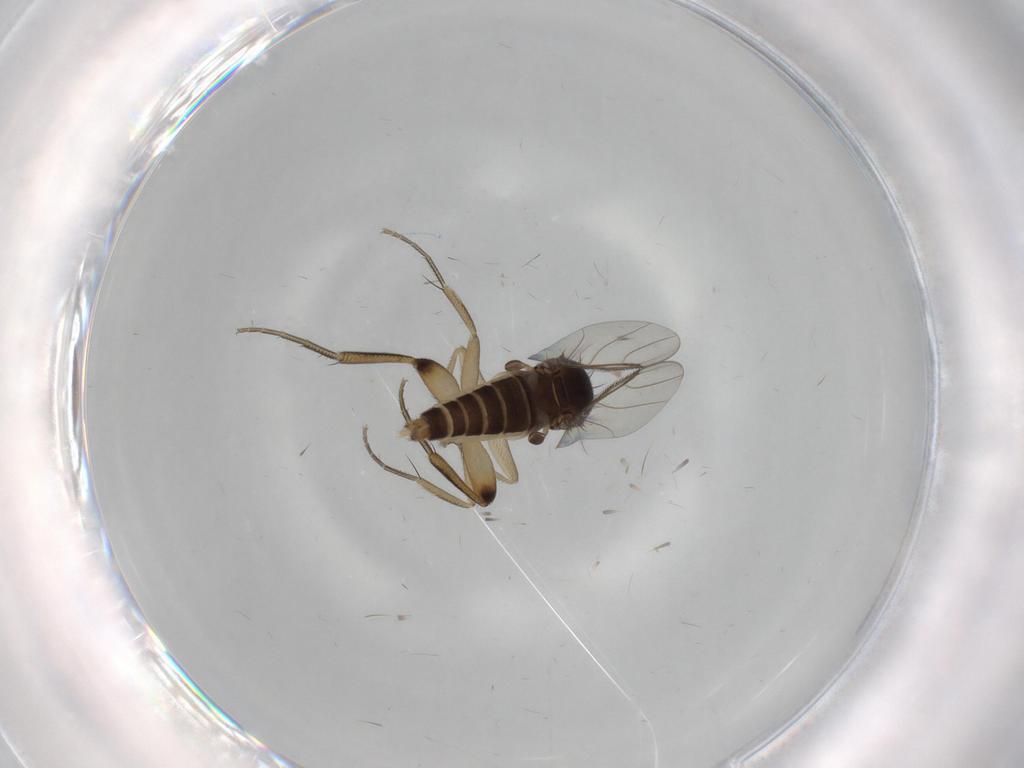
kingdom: Animalia
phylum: Arthropoda
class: Insecta
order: Diptera
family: Phoridae
